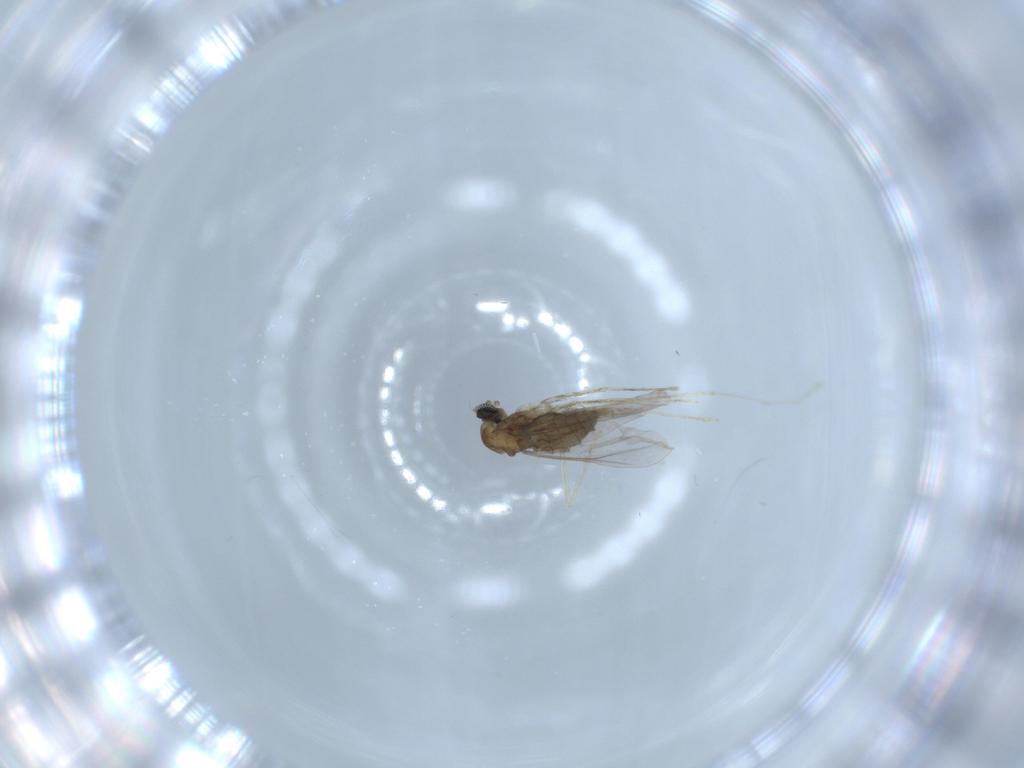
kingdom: Animalia
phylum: Arthropoda
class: Insecta
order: Diptera
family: Cecidomyiidae
